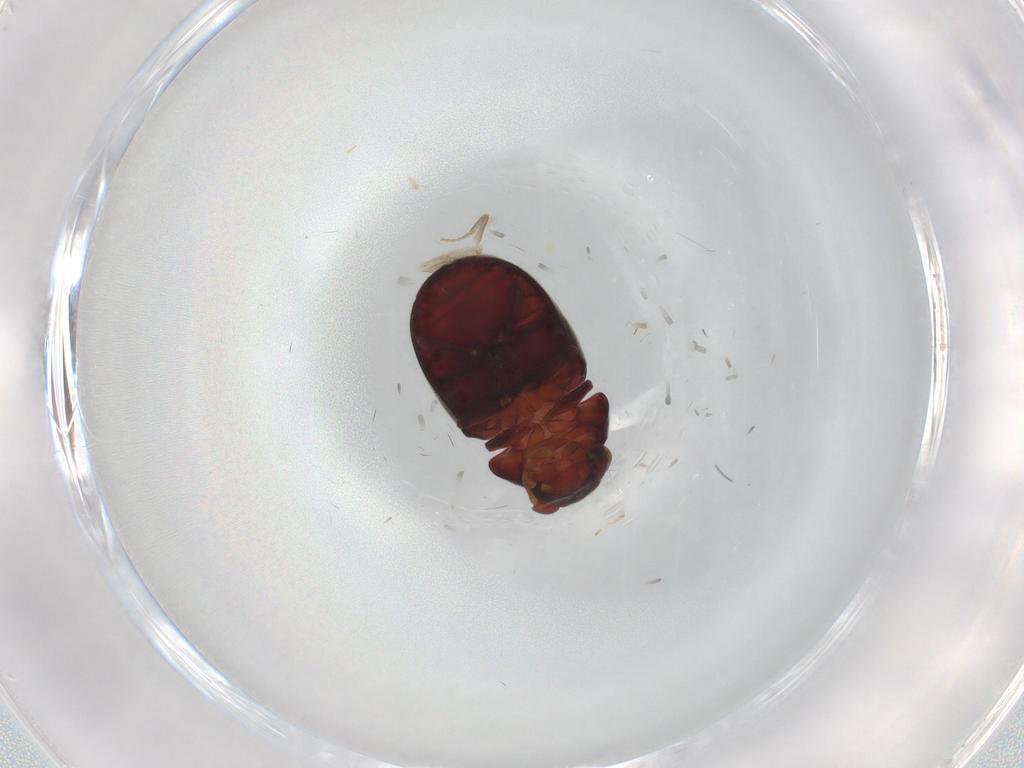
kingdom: Animalia
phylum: Arthropoda
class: Insecta
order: Coleoptera
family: Ptinidae
